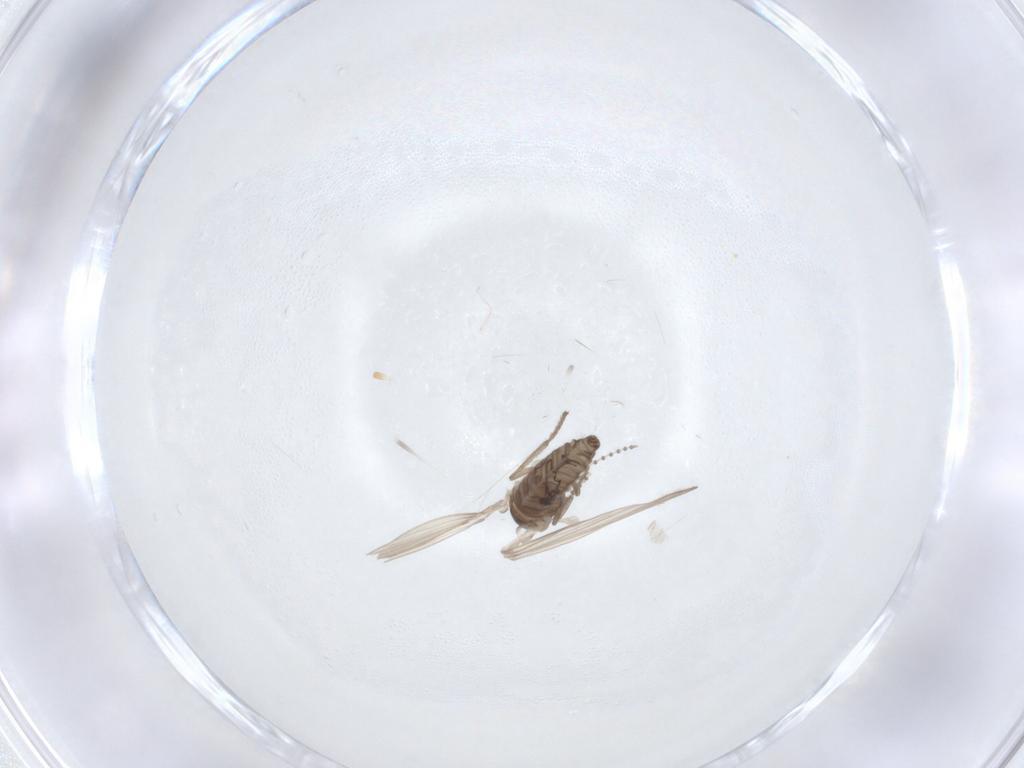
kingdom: Animalia
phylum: Arthropoda
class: Insecta
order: Diptera
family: Psychodidae
